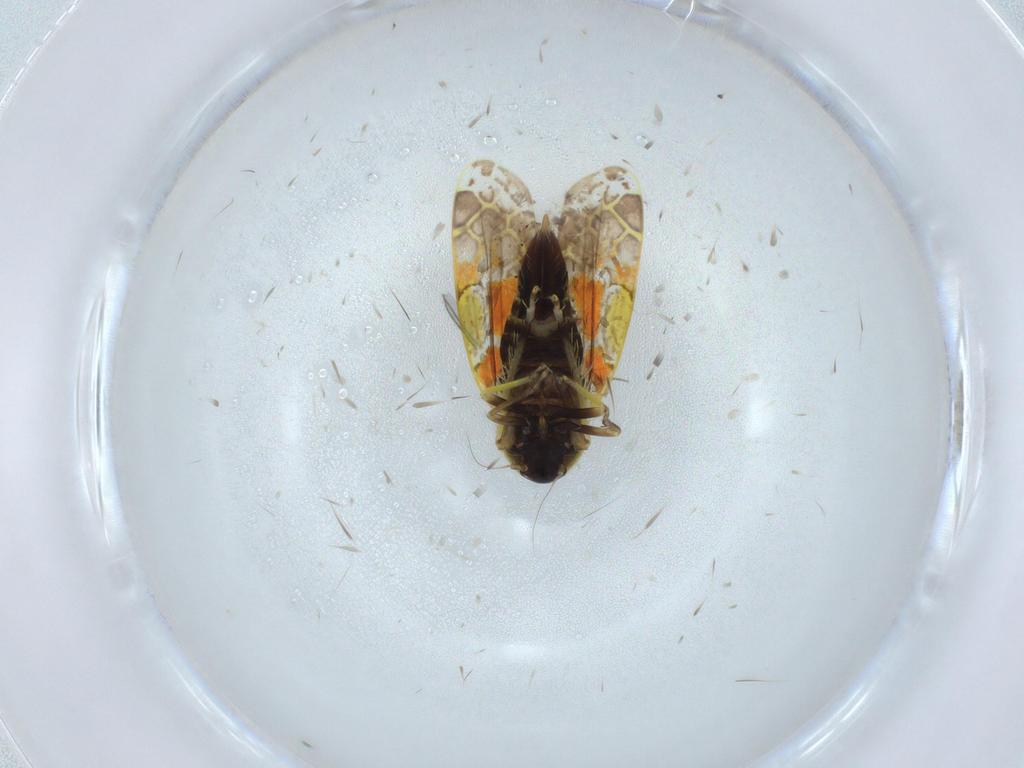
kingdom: Animalia
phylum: Arthropoda
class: Insecta
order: Hemiptera
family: Cicadellidae
